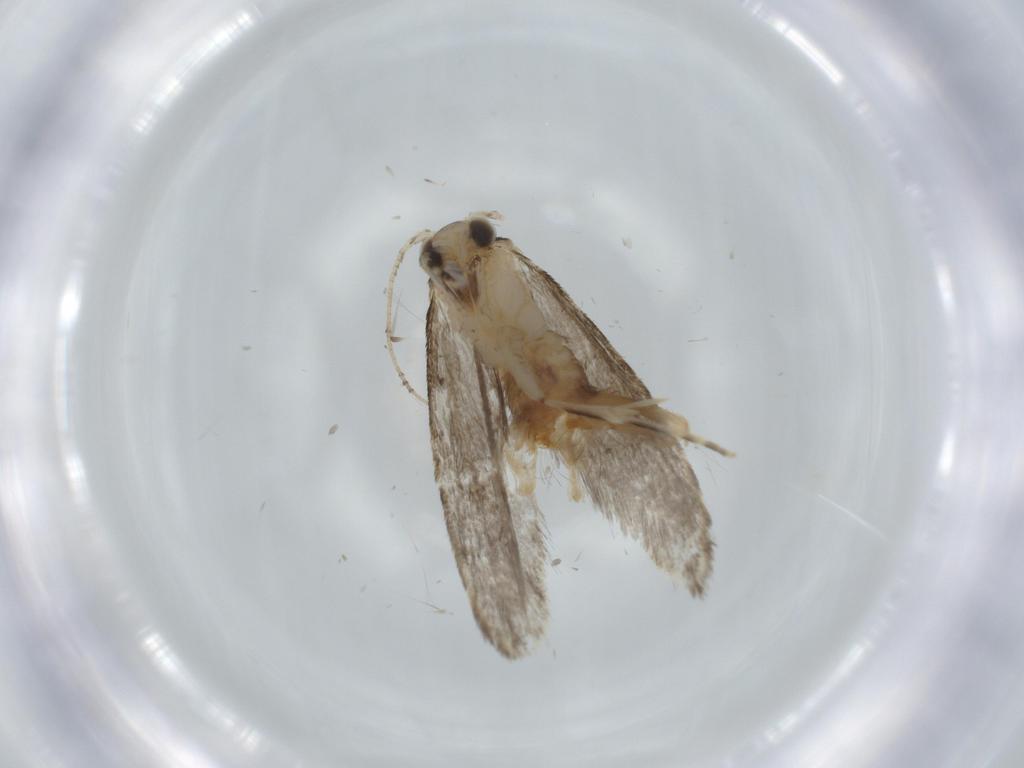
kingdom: Animalia
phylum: Arthropoda
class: Insecta
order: Lepidoptera
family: Tineidae
